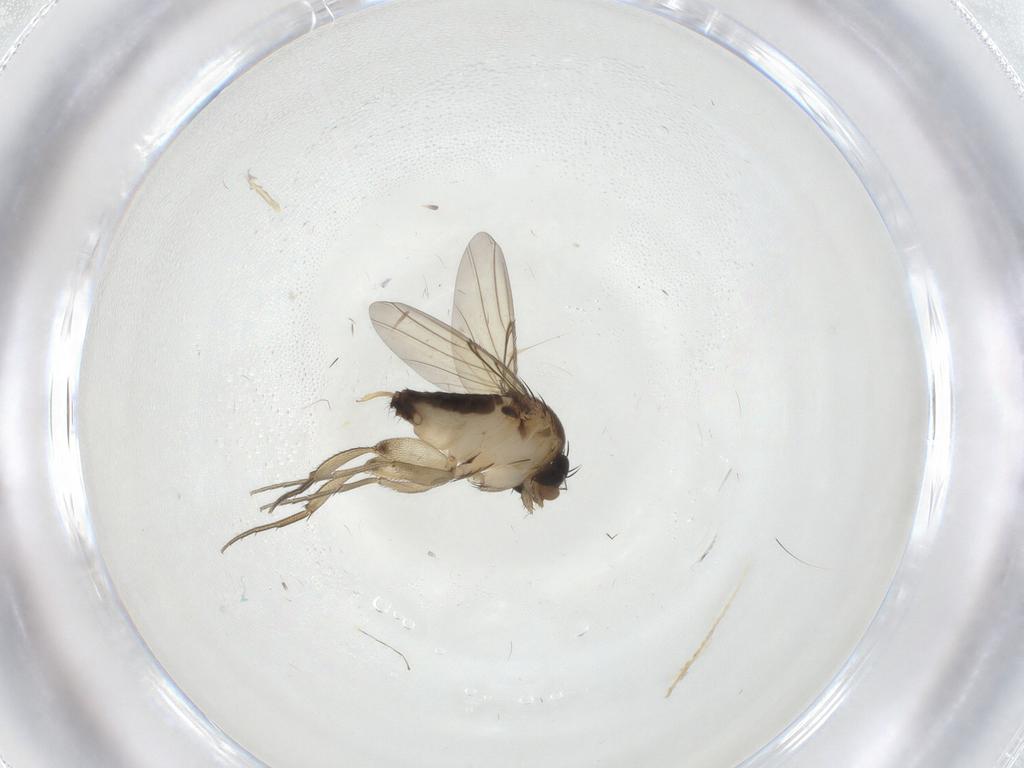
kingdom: Animalia
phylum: Arthropoda
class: Insecta
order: Diptera
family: Phoridae
